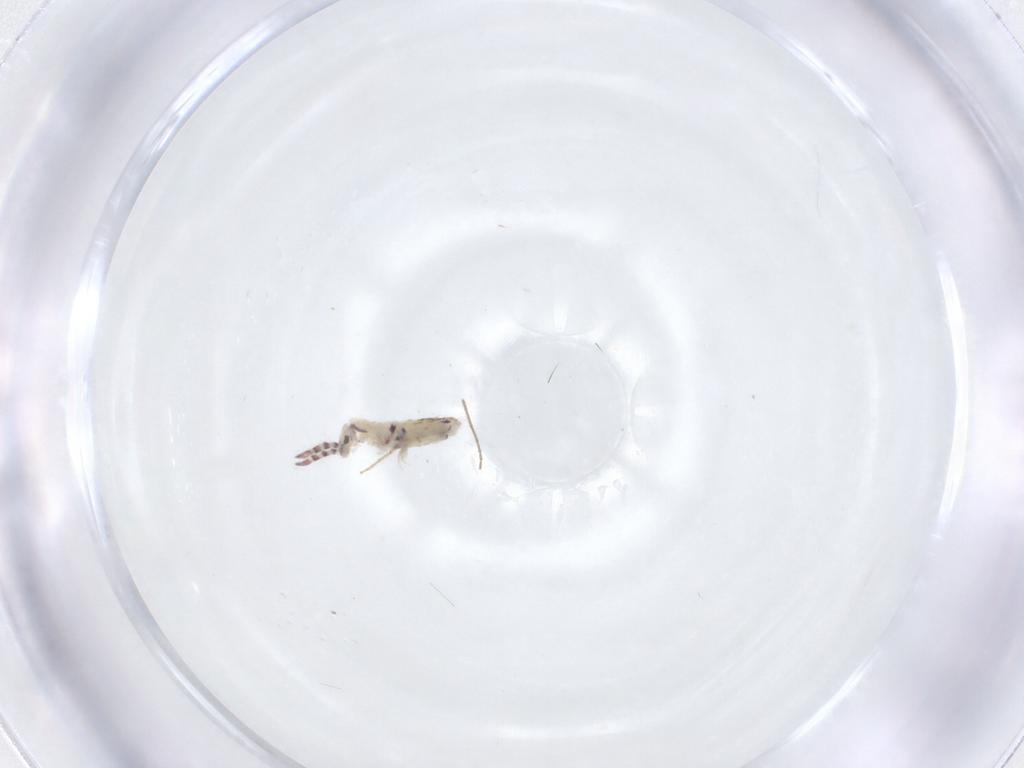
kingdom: Animalia
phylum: Arthropoda
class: Collembola
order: Entomobryomorpha
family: Entomobryidae
